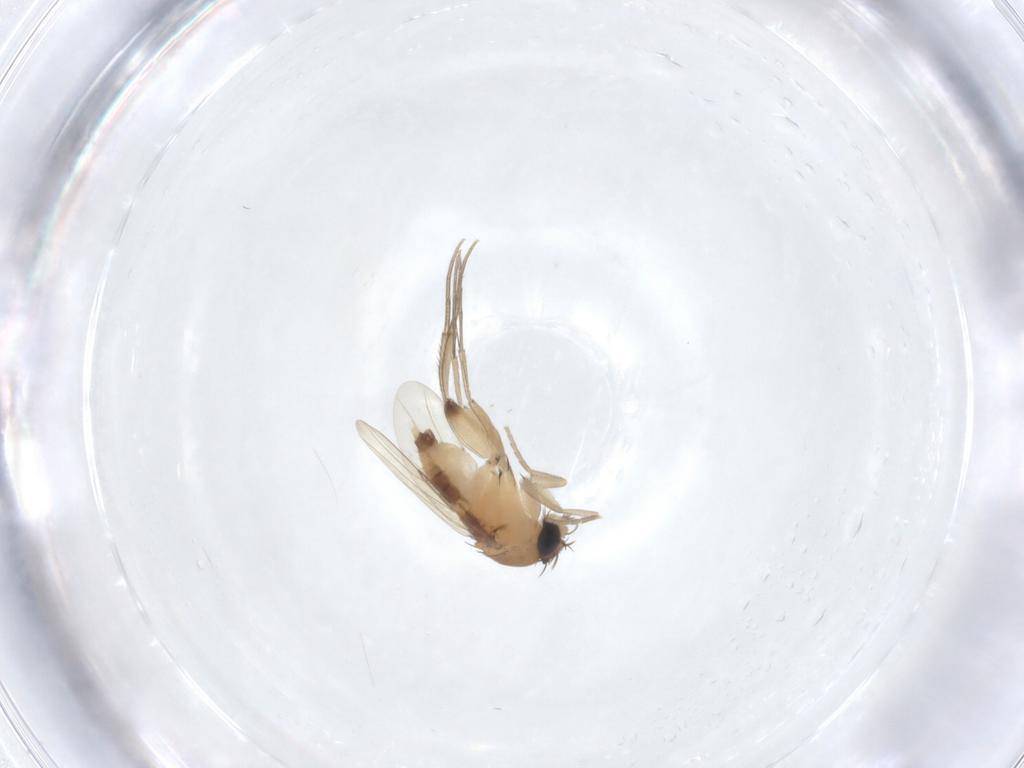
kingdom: Animalia
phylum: Arthropoda
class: Insecta
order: Diptera
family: Phoridae
